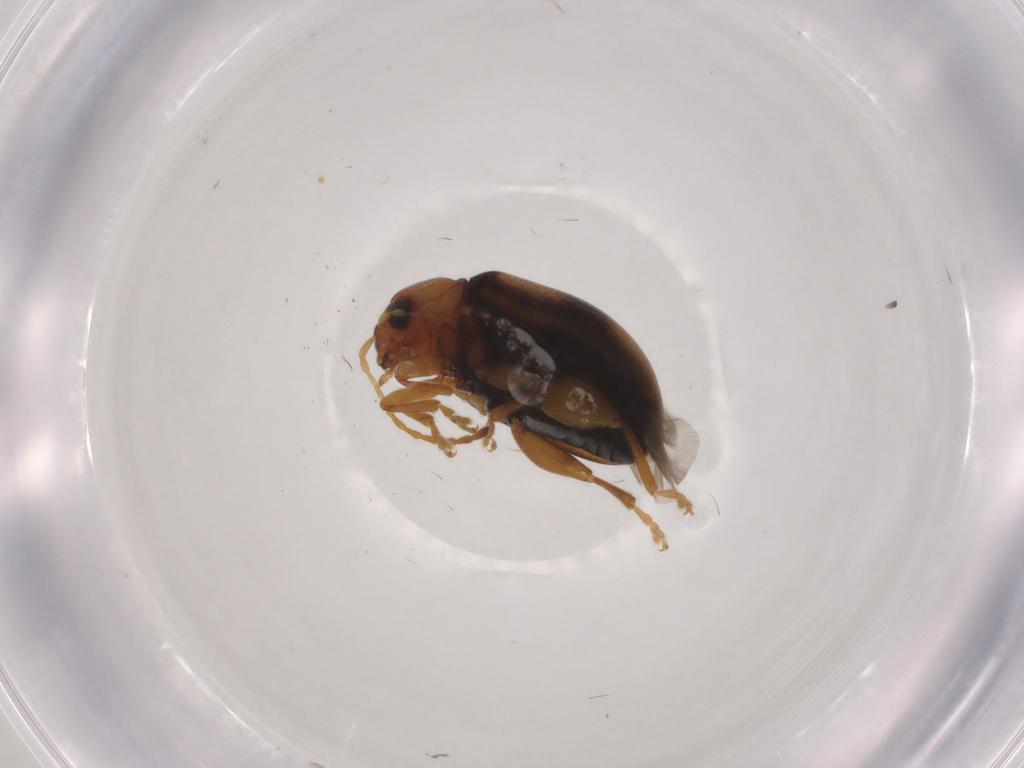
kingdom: Animalia
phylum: Arthropoda
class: Insecta
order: Coleoptera
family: Chrysomelidae
